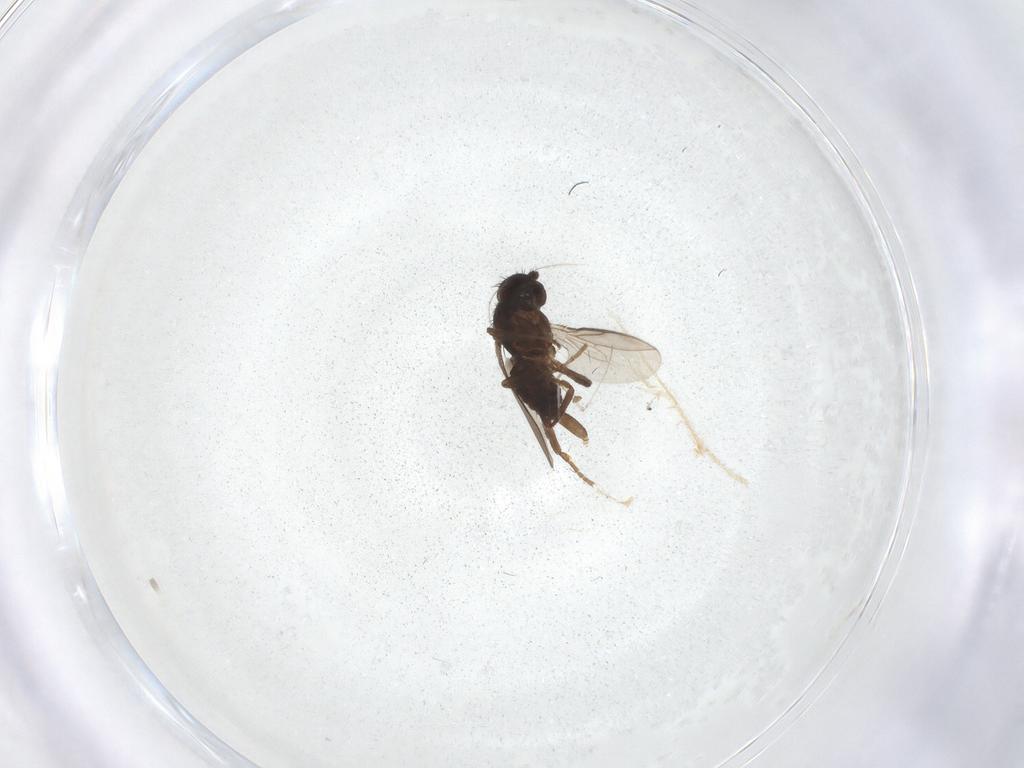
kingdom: Animalia
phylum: Arthropoda
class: Insecta
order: Diptera
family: Sphaeroceridae
